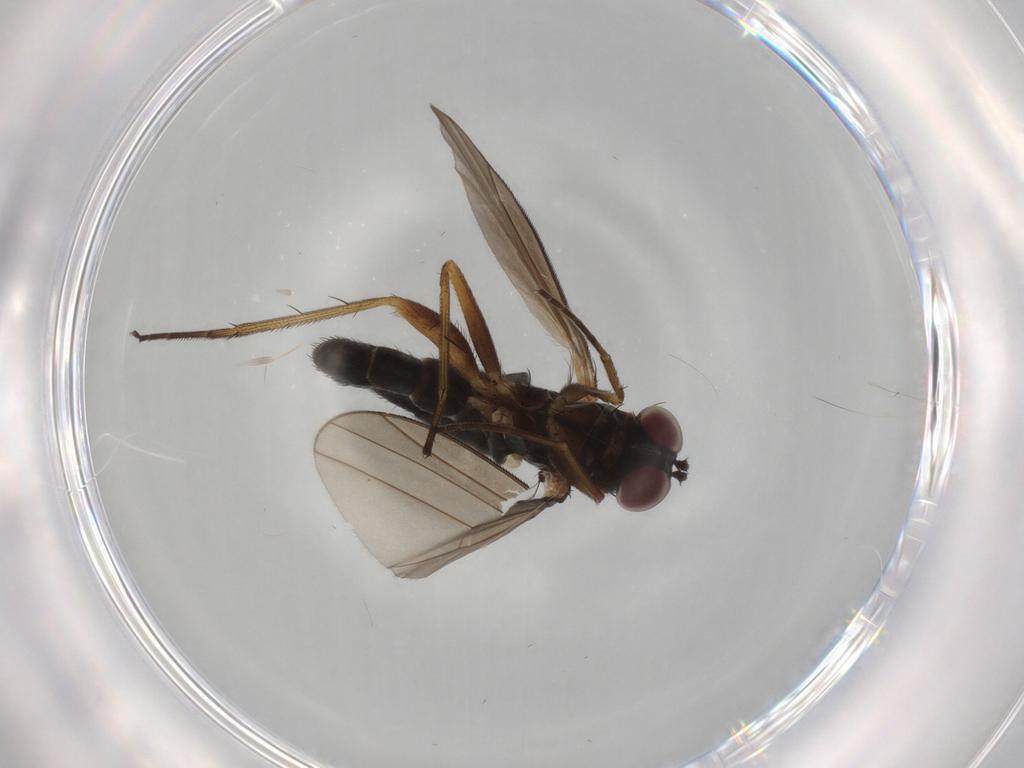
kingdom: Animalia
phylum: Arthropoda
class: Insecta
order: Diptera
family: Dolichopodidae
